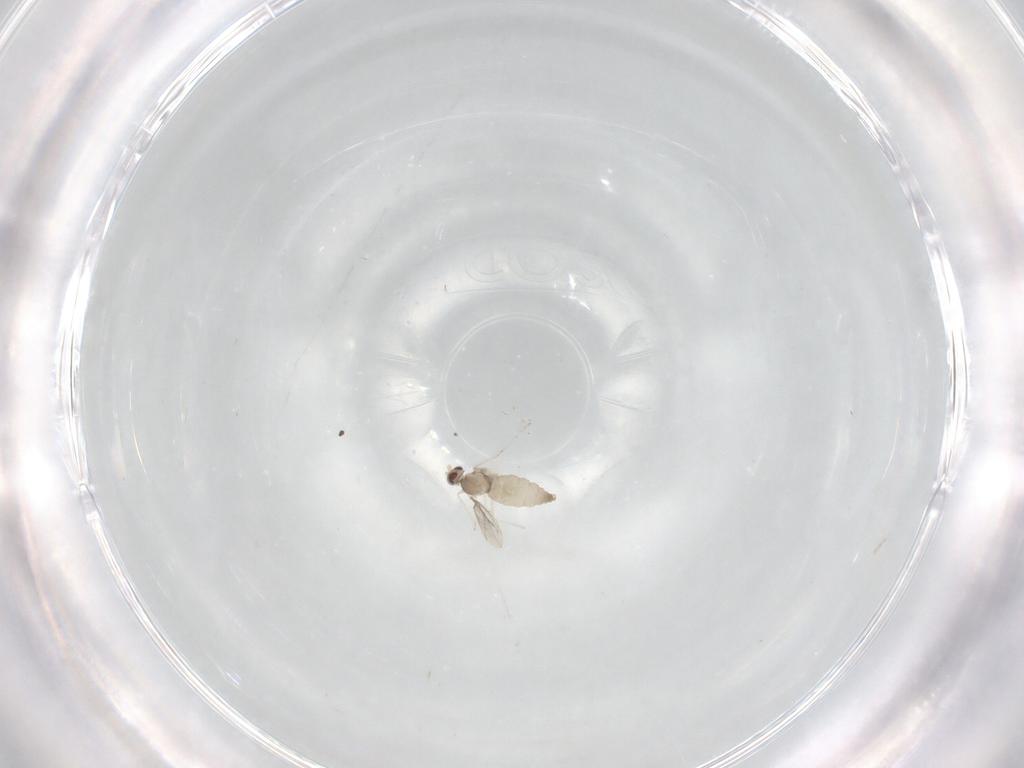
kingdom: Animalia
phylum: Arthropoda
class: Insecta
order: Diptera
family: Cecidomyiidae
